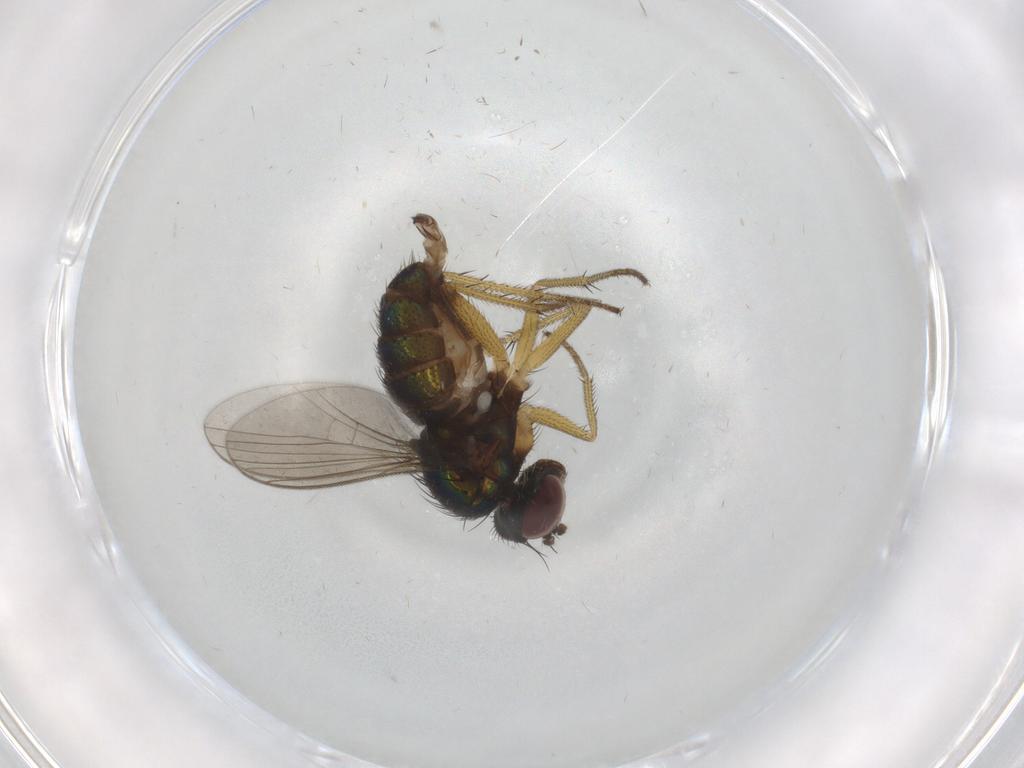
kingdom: Animalia
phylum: Arthropoda
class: Insecta
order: Diptera
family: Dolichopodidae
